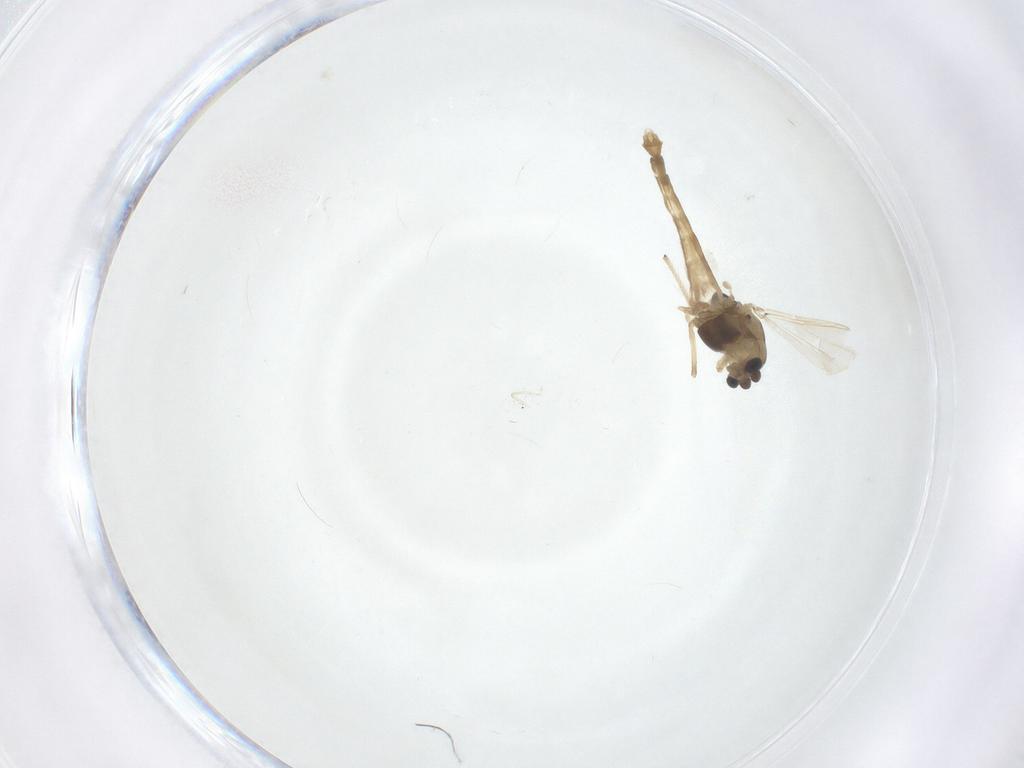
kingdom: Animalia
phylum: Arthropoda
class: Insecta
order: Diptera
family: Chironomidae
